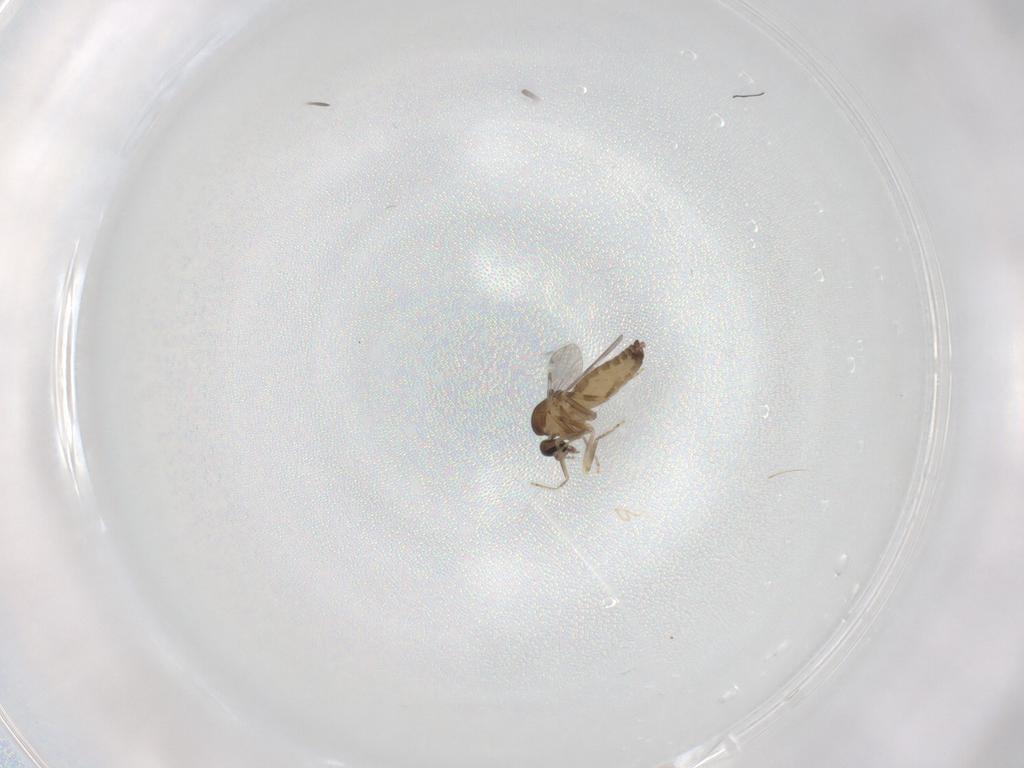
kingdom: Animalia
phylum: Arthropoda
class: Insecta
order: Diptera
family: Ceratopogonidae
